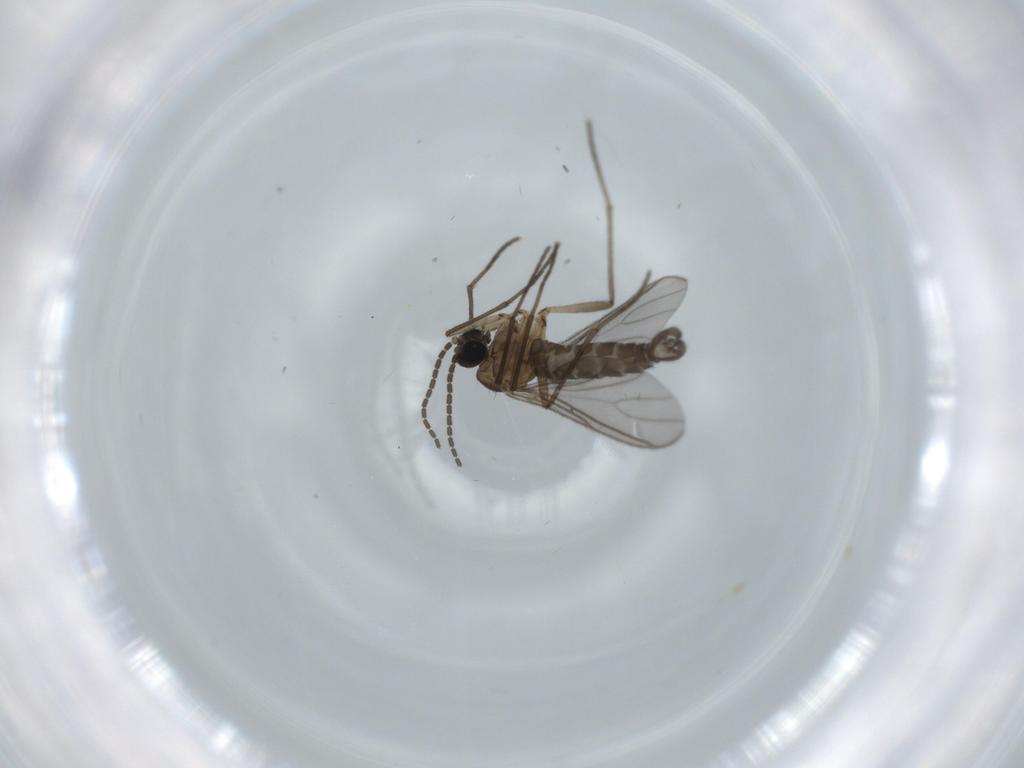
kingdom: Animalia
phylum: Arthropoda
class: Insecta
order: Diptera
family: Sciaridae
